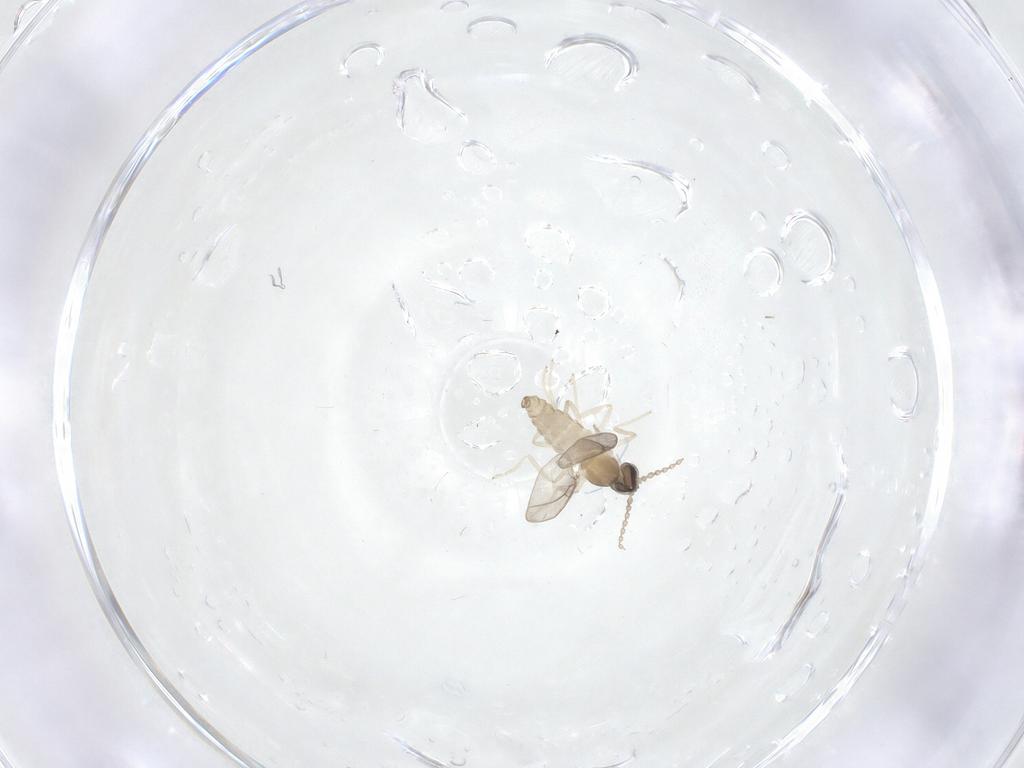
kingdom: Animalia
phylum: Arthropoda
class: Insecta
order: Diptera
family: Cecidomyiidae
